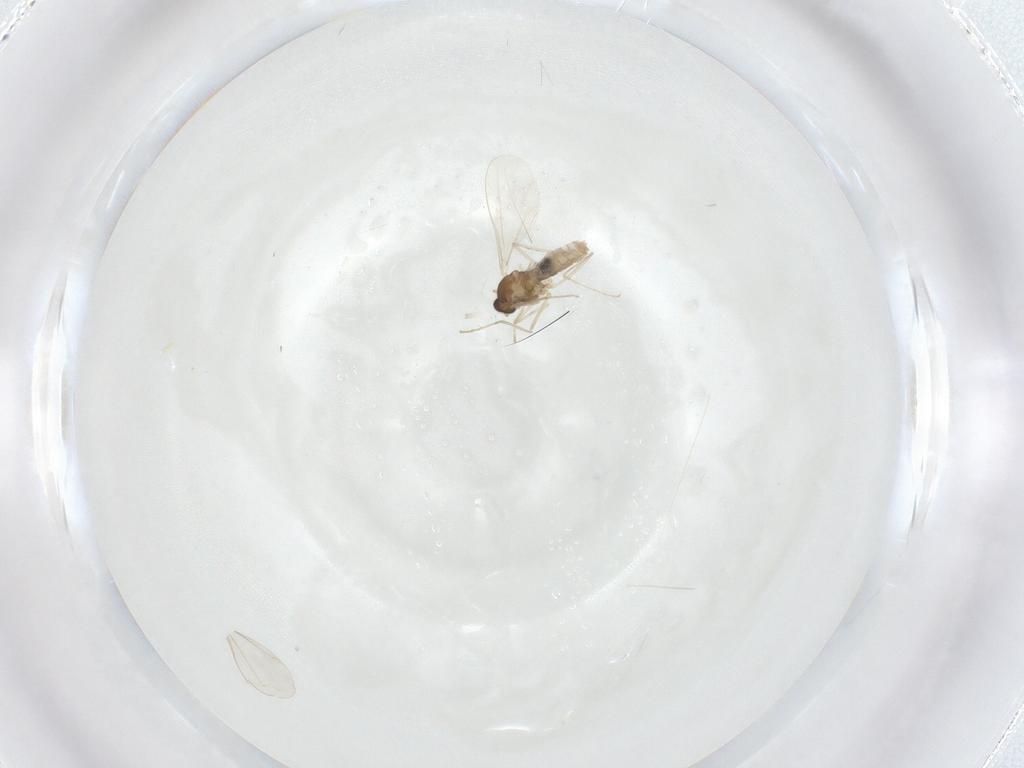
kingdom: Animalia
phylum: Arthropoda
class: Insecta
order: Diptera
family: Cecidomyiidae
